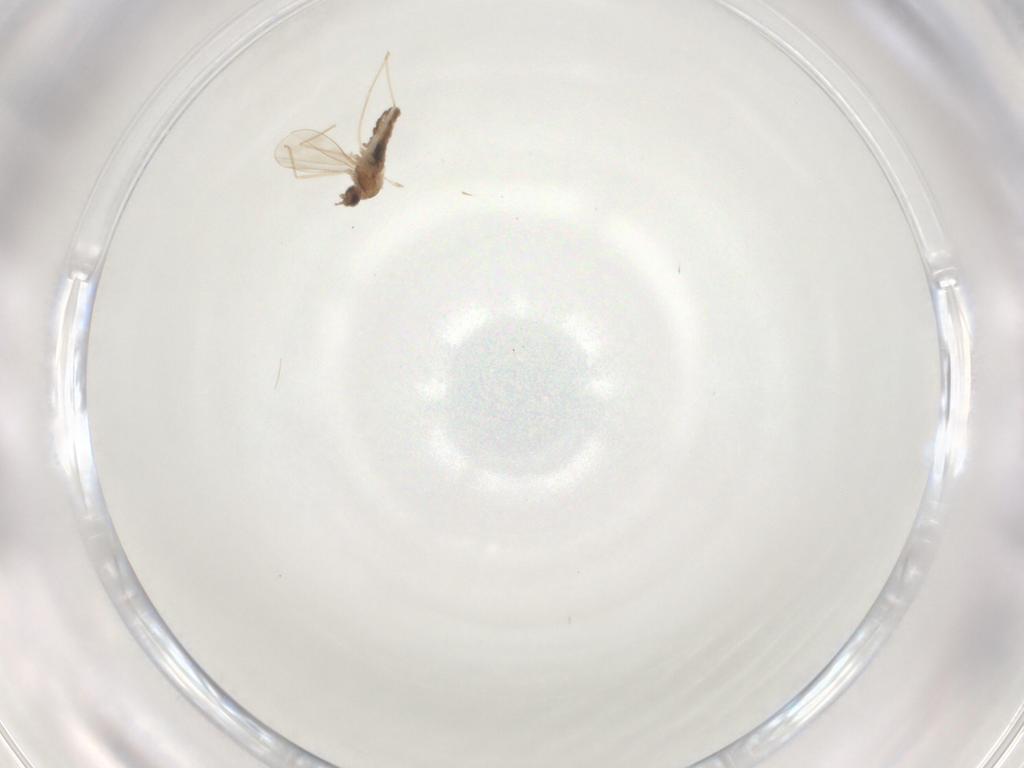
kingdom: Animalia
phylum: Arthropoda
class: Insecta
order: Diptera
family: Cecidomyiidae
